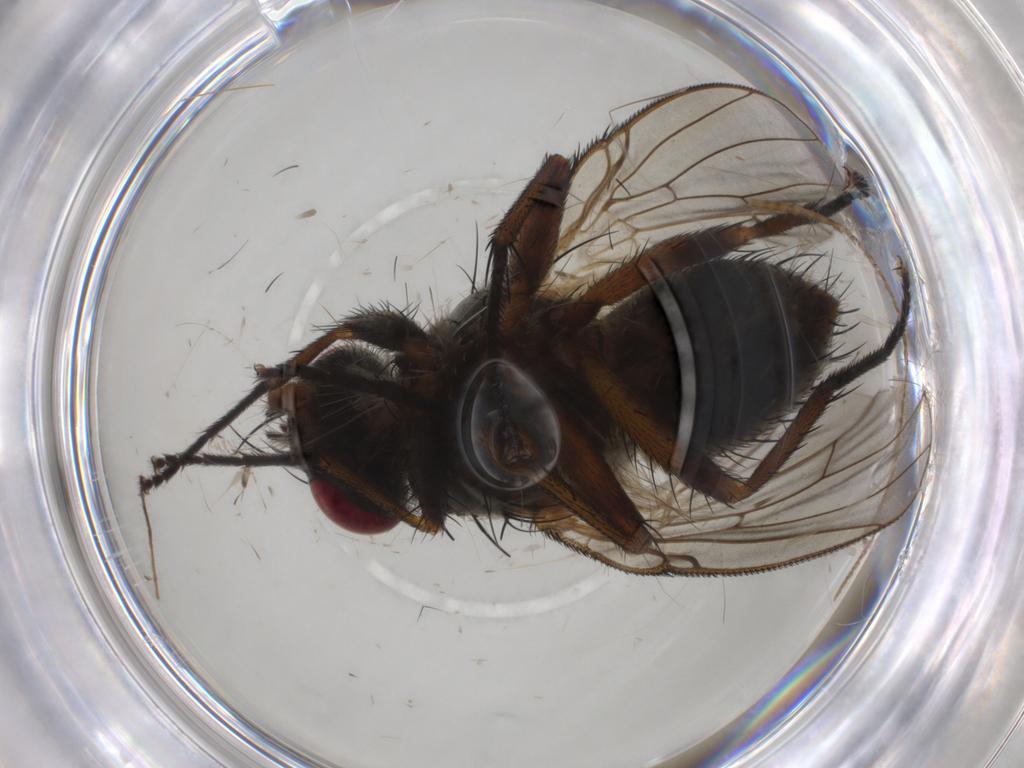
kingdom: Animalia
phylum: Arthropoda
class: Insecta
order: Diptera
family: Muscidae
